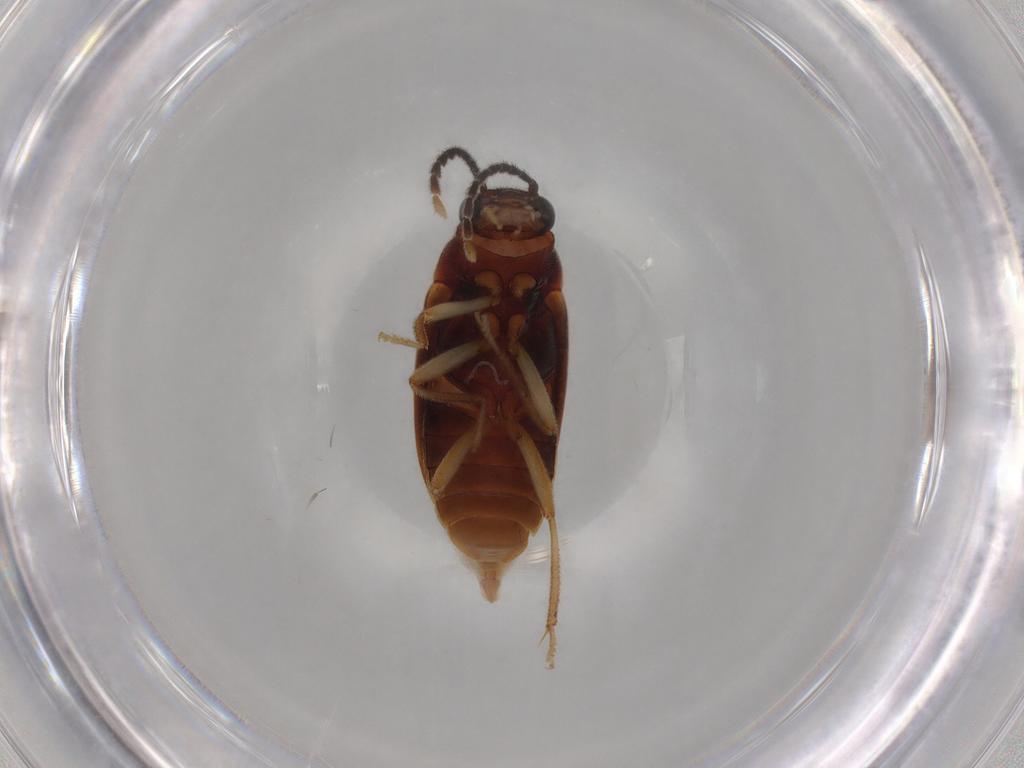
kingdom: Animalia
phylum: Arthropoda
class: Insecta
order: Coleoptera
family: Ptilodactylidae
